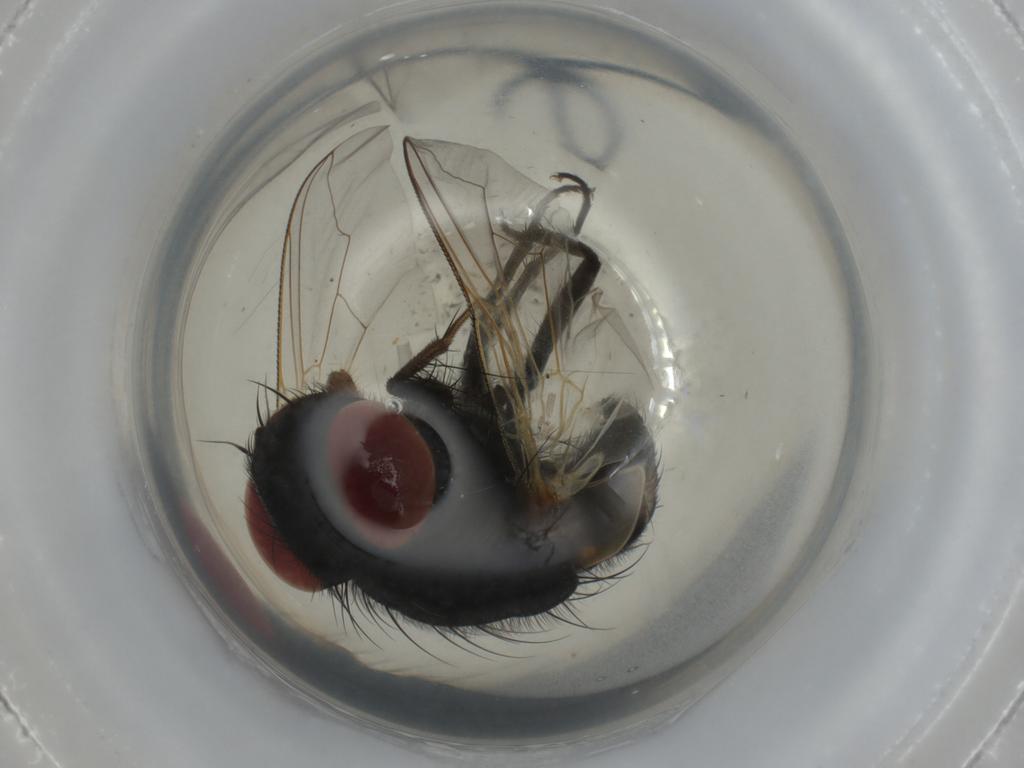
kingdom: Animalia
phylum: Arthropoda
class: Insecta
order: Diptera
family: Sarcophagidae
